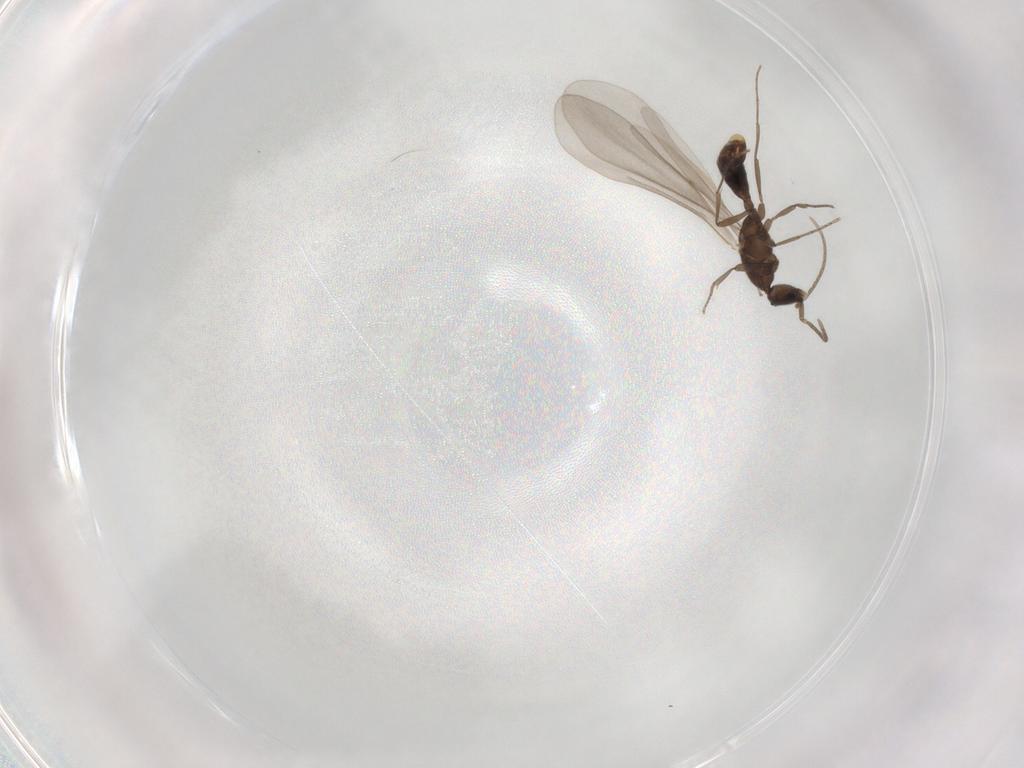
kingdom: Animalia
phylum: Arthropoda
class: Insecta
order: Hymenoptera
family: Formicidae
